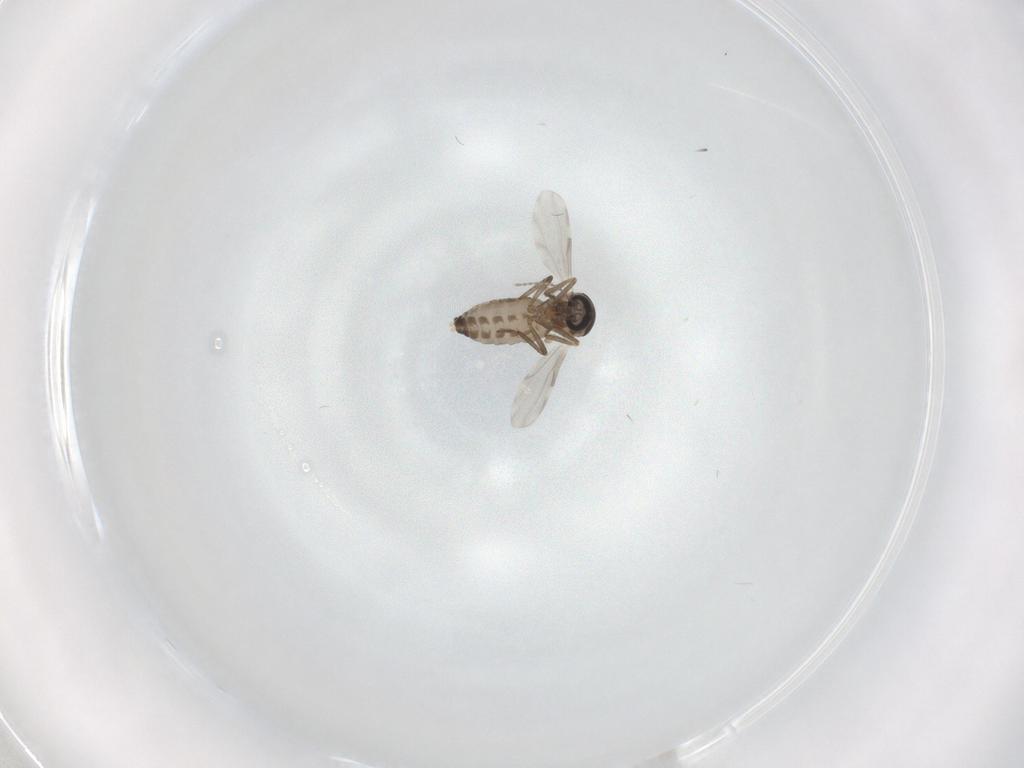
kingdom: Animalia
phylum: Arthropoda
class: Insecta
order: Diptera
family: Ceratopogonidae
